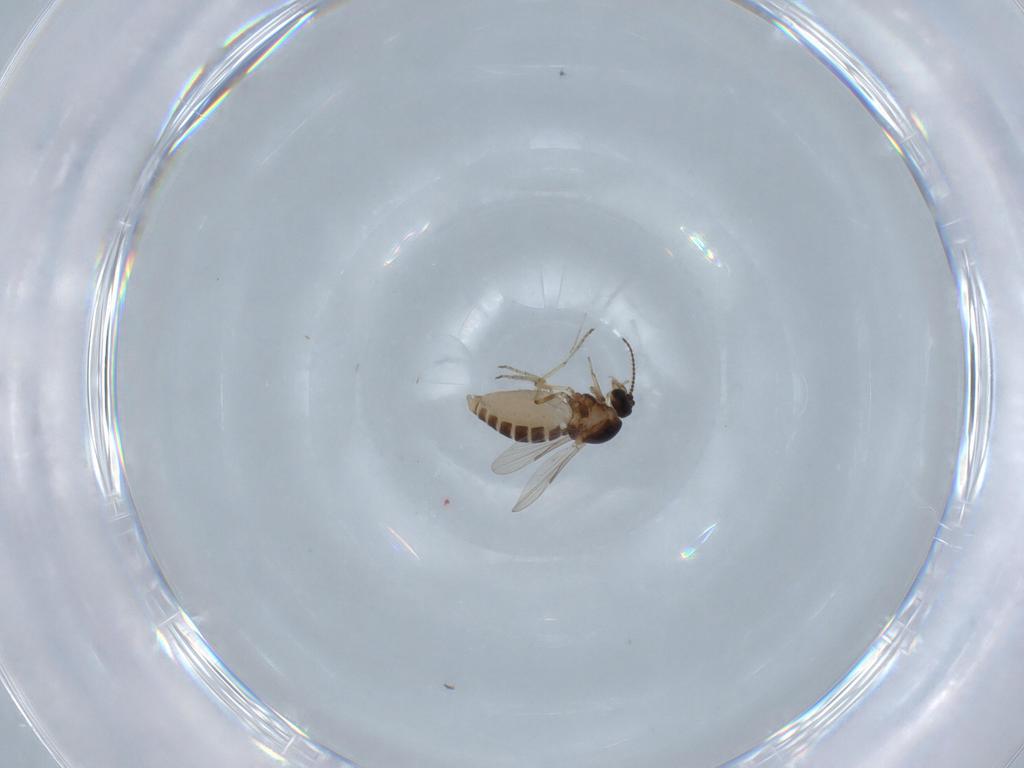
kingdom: Animalia
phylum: Arthropoda
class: Insecta
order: Diptera
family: Ceratopogonidae
